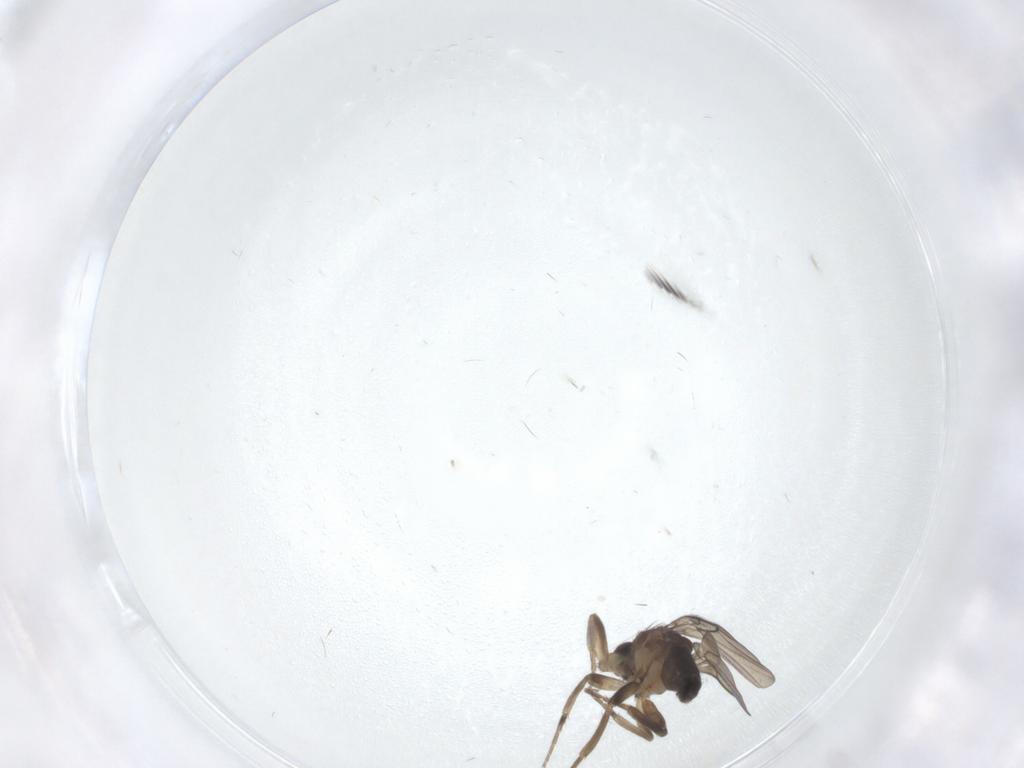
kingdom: Animalia
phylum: Arthropoda
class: Insecta
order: Diptera
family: Phoridae
